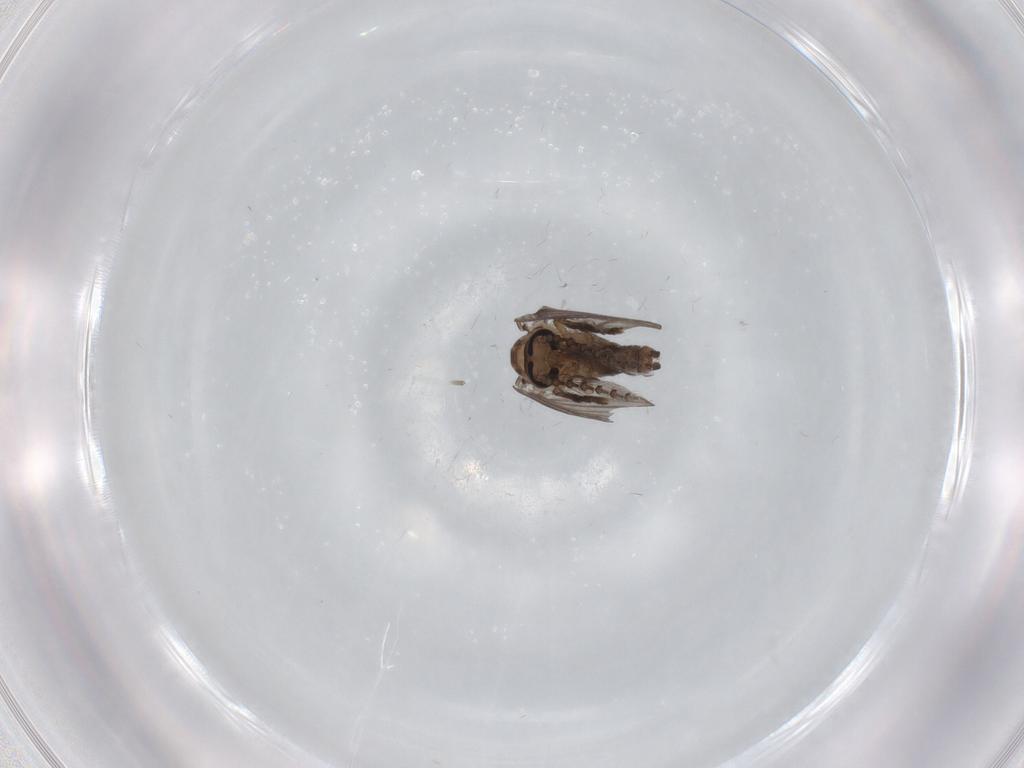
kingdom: Animalia
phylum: Arthropoda
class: Insecta
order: Diptera
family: Psychodidae
